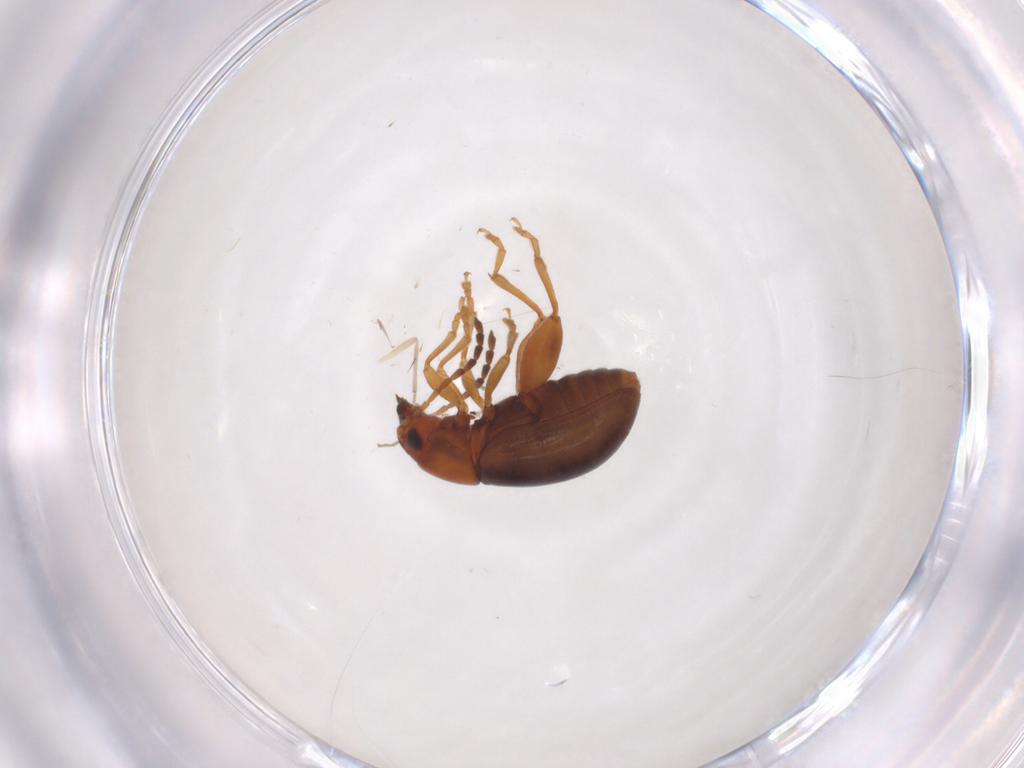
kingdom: Animalia
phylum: Arthropoda
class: Insecta
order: Coleoptera
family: Chrysomelidae
